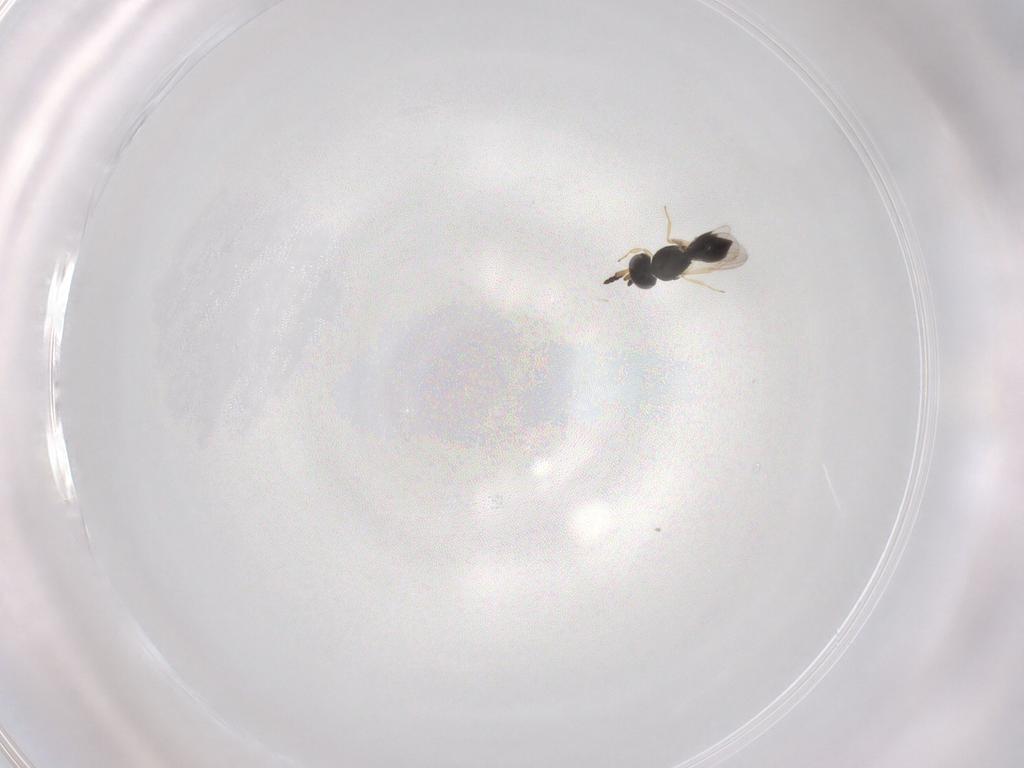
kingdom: Animalia
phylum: Arthropoda
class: Insecta
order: Hymenoptera
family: Scelionidae
